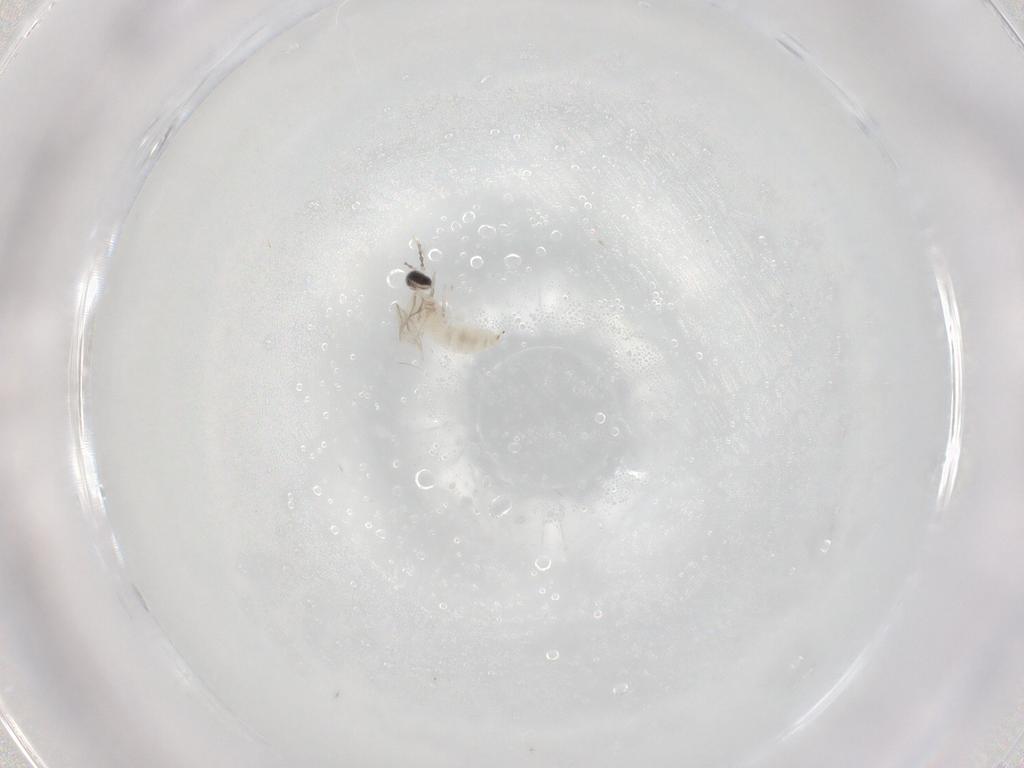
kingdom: Animalia
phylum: Arthropoda
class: Insecta
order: Diptera
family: Cecidomyiidae
